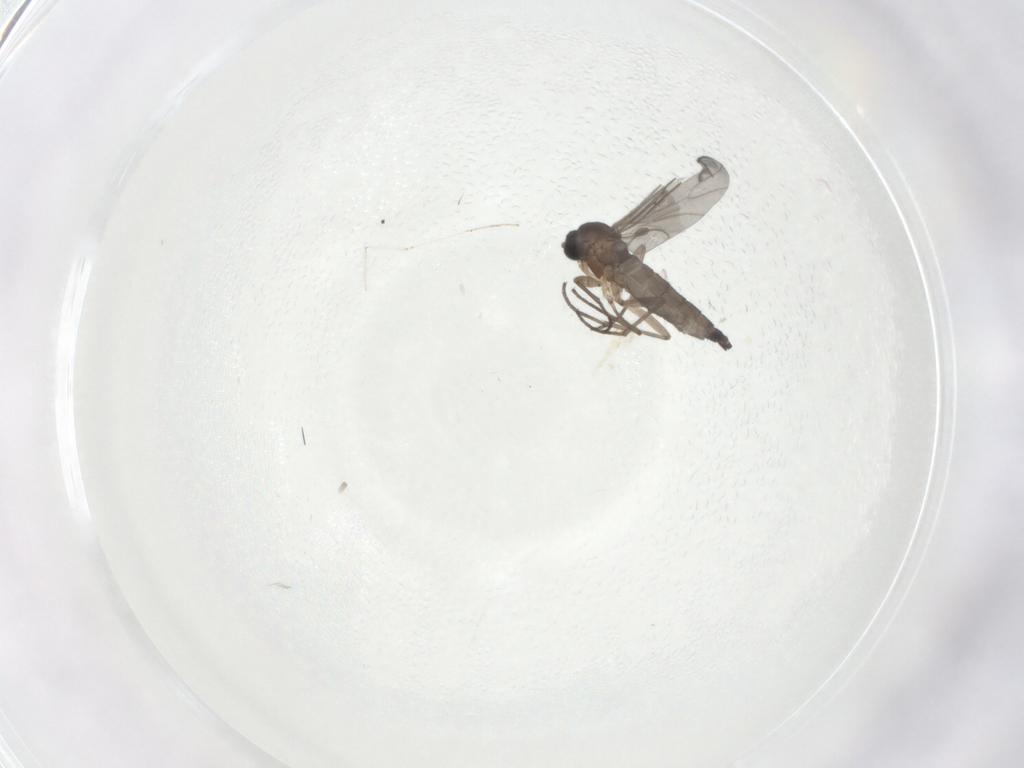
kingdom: Animalia
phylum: Arthropoda
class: Insecta
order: Diptera
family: Sciaridae
